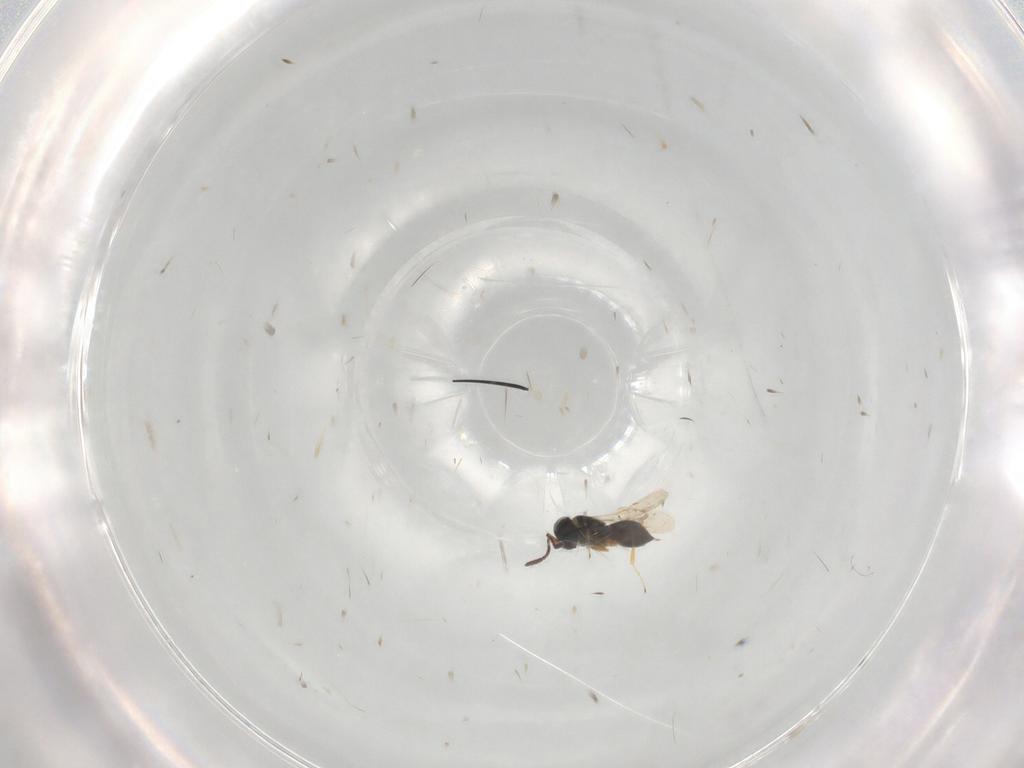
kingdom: Animalia
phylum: Arthropoda
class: Insecta
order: Hymenoptera
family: Scelionidae
